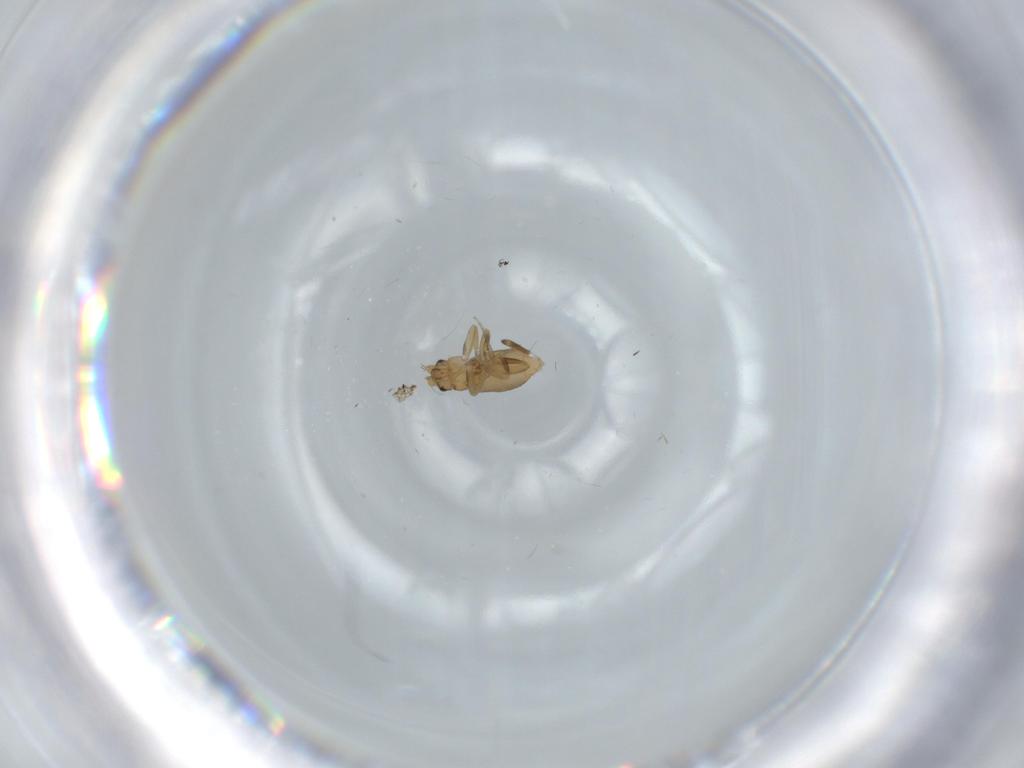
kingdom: Animalia
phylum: Arthropoda
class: Insecta
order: Diptera
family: Phoridae
